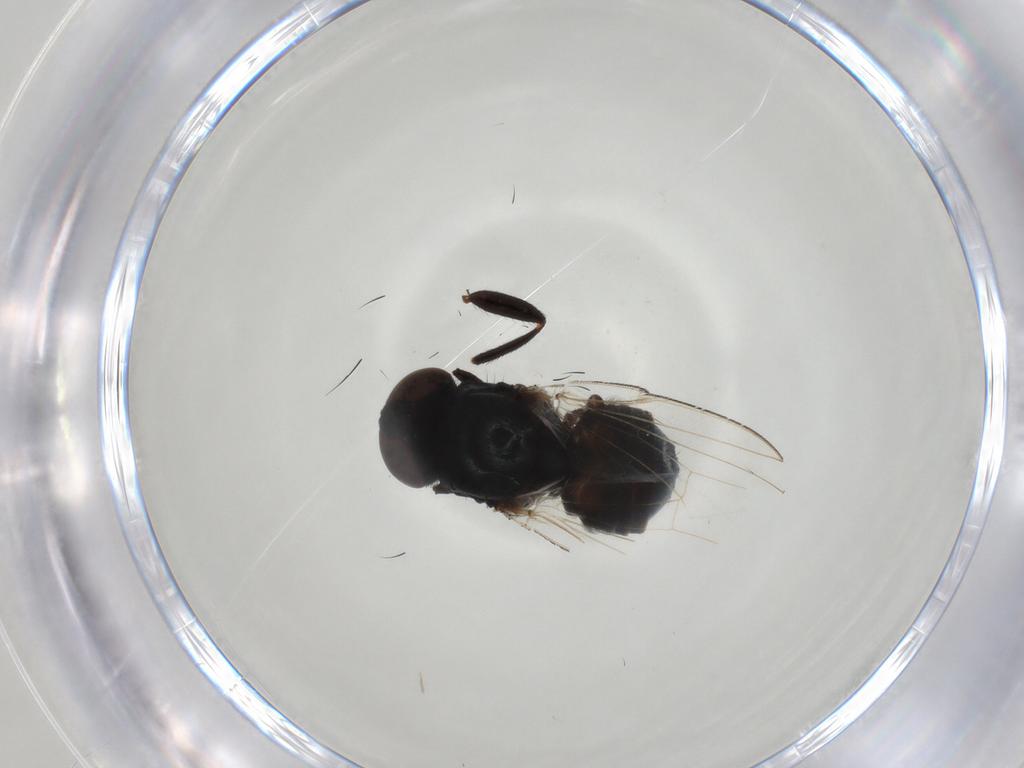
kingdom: Animalia
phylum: Arthropoda
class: Insecta
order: Diptera
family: Milichiidae
